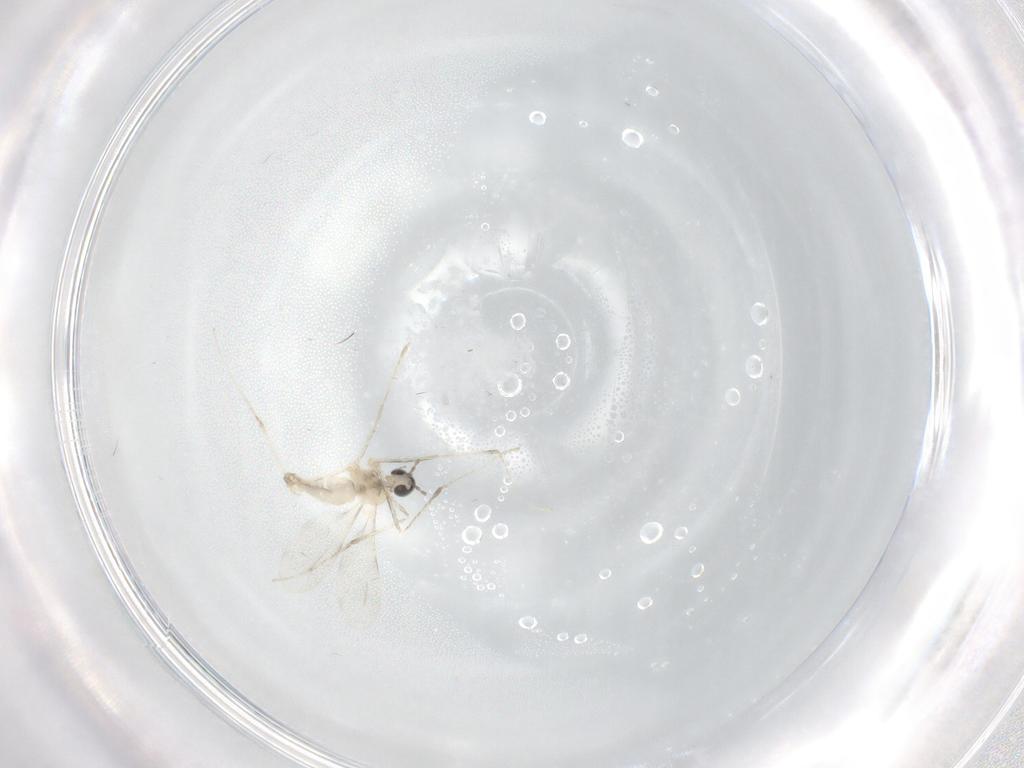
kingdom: Animalia
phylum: Arthropoda
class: Insecta
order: Diptera
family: Cecidomyiidae
